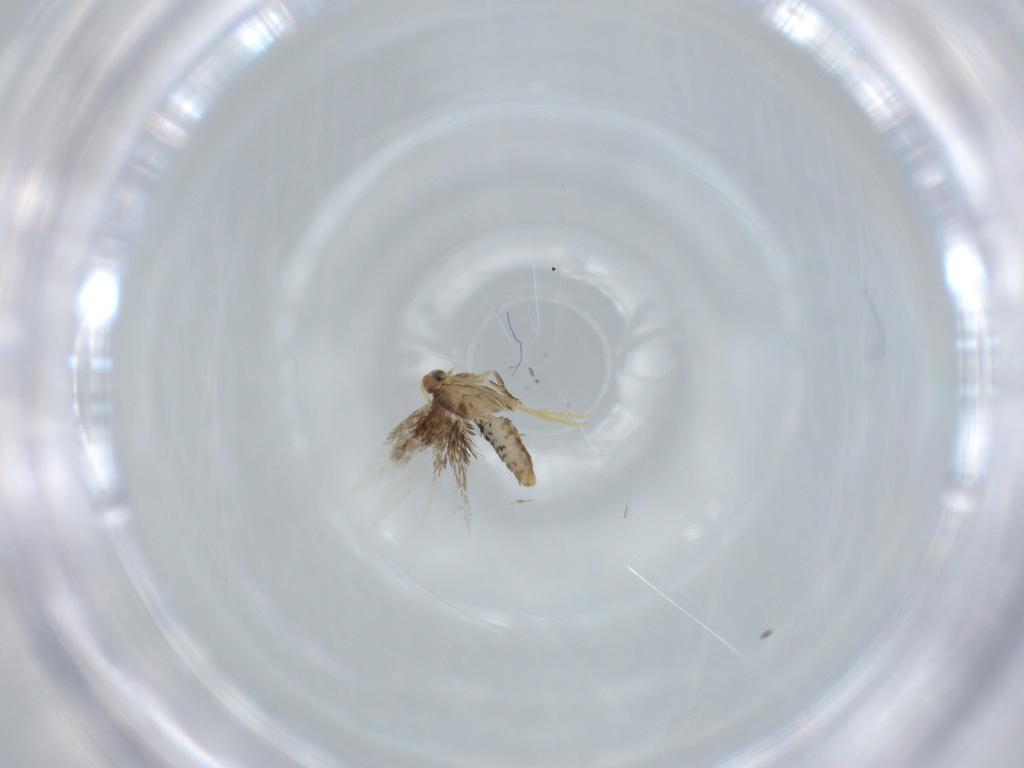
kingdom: Animalia
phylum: Arthropoda
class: Insecta
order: Lepidoptera
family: Nepticulidae
